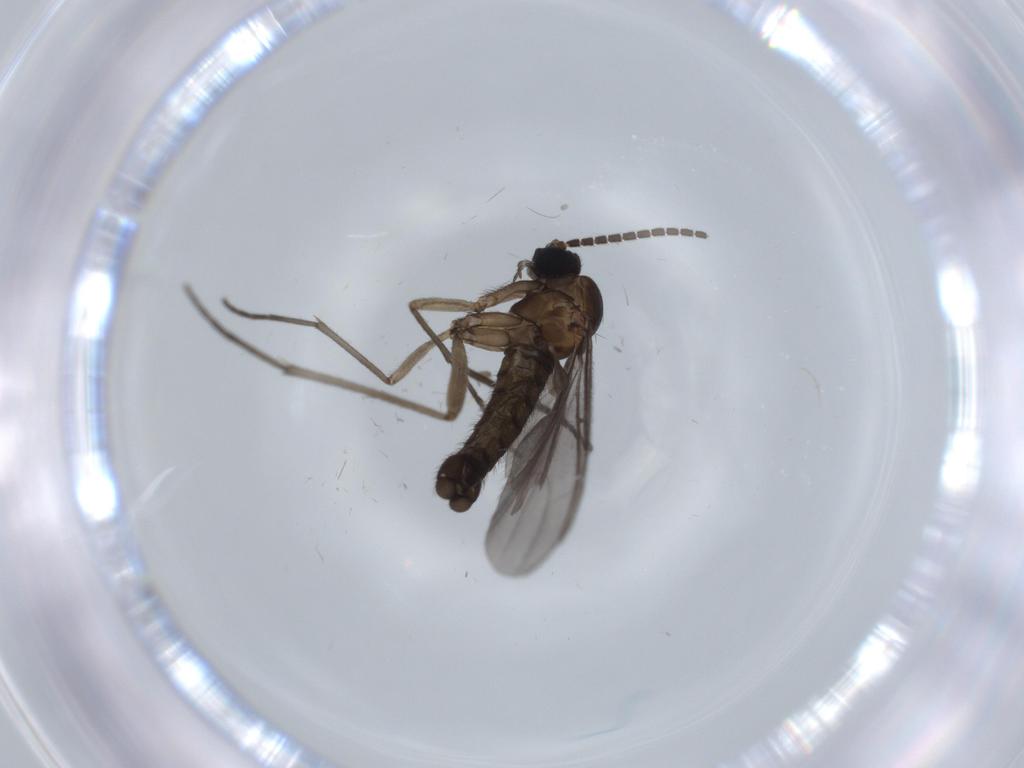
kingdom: Animalia
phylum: Arthropoda
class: Insecta
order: Diptera
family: Sciaridae
